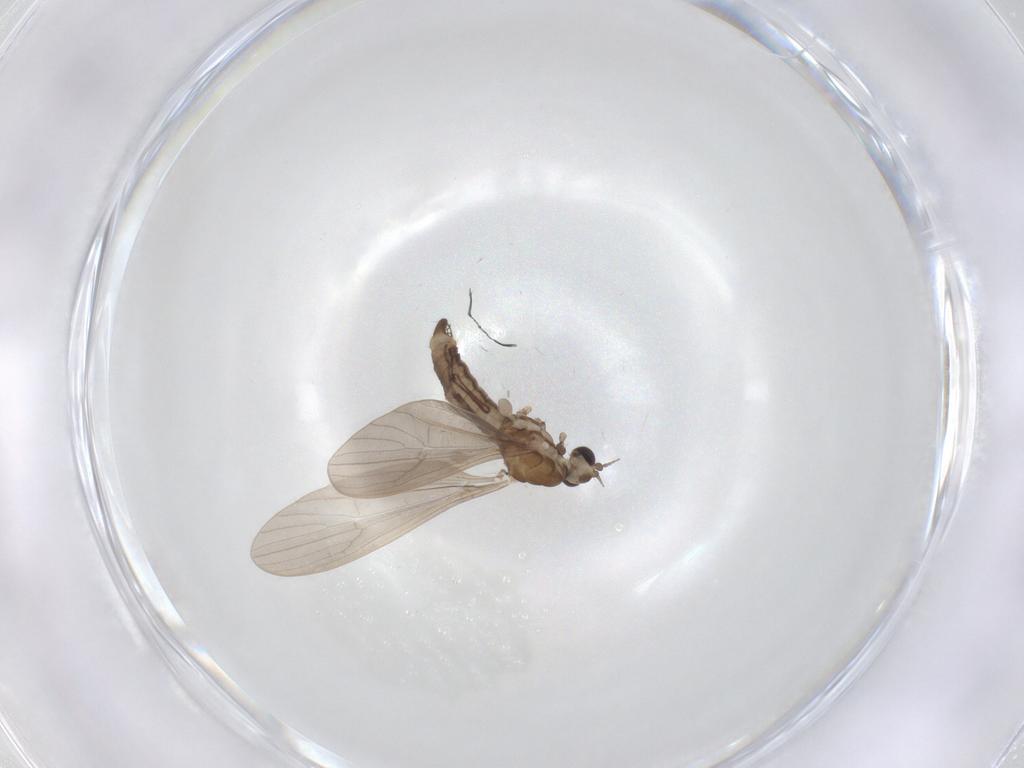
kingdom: Animalia
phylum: Arthropoda
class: Insecta
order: Diptera
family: Limoniidae
